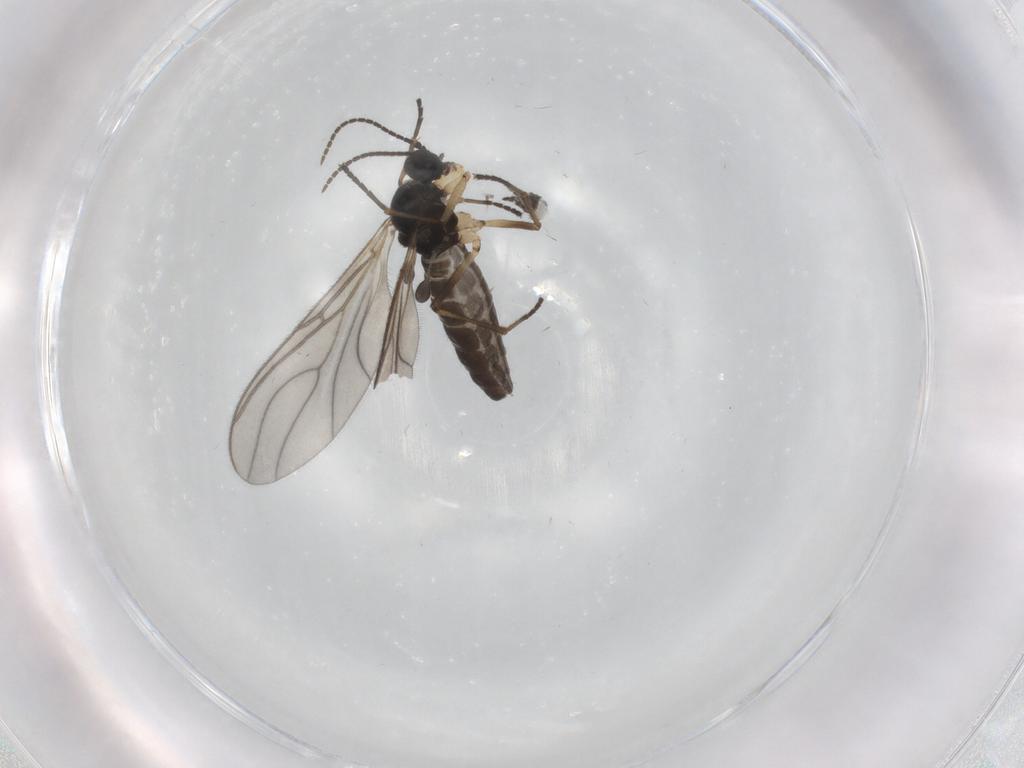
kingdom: Animalia
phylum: Arthropoda
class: Insecta
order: Diptera
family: Sciaridae
